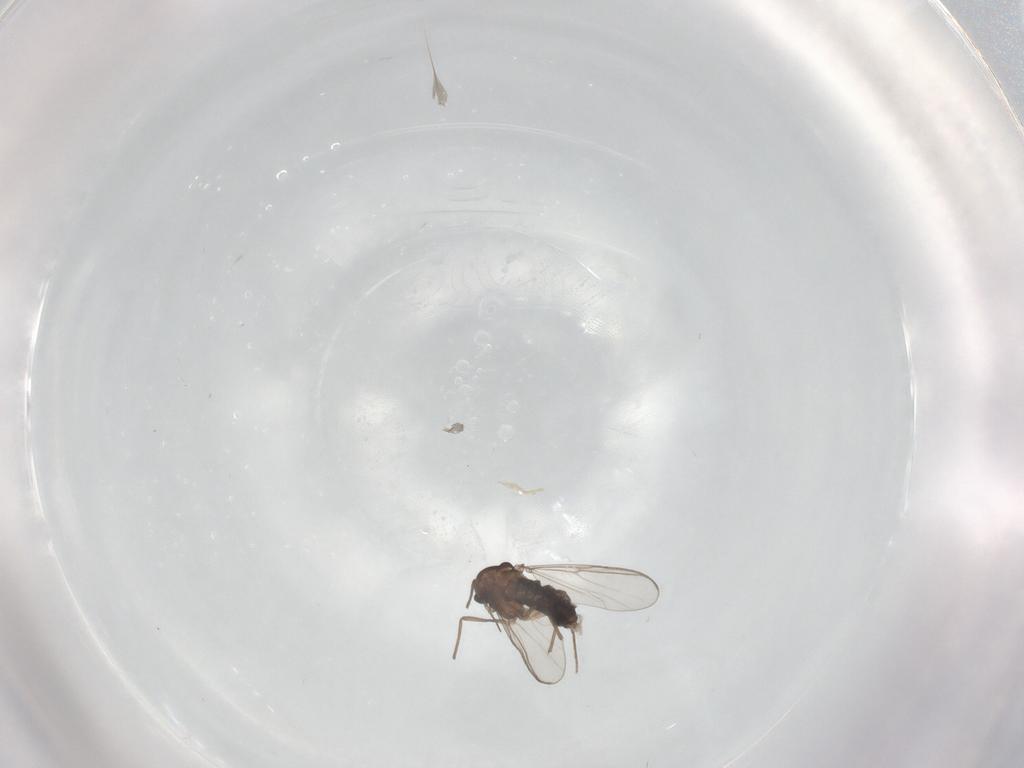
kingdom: Animalia
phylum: Arthropoda
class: Insecta
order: Diptera
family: Chironomidae
